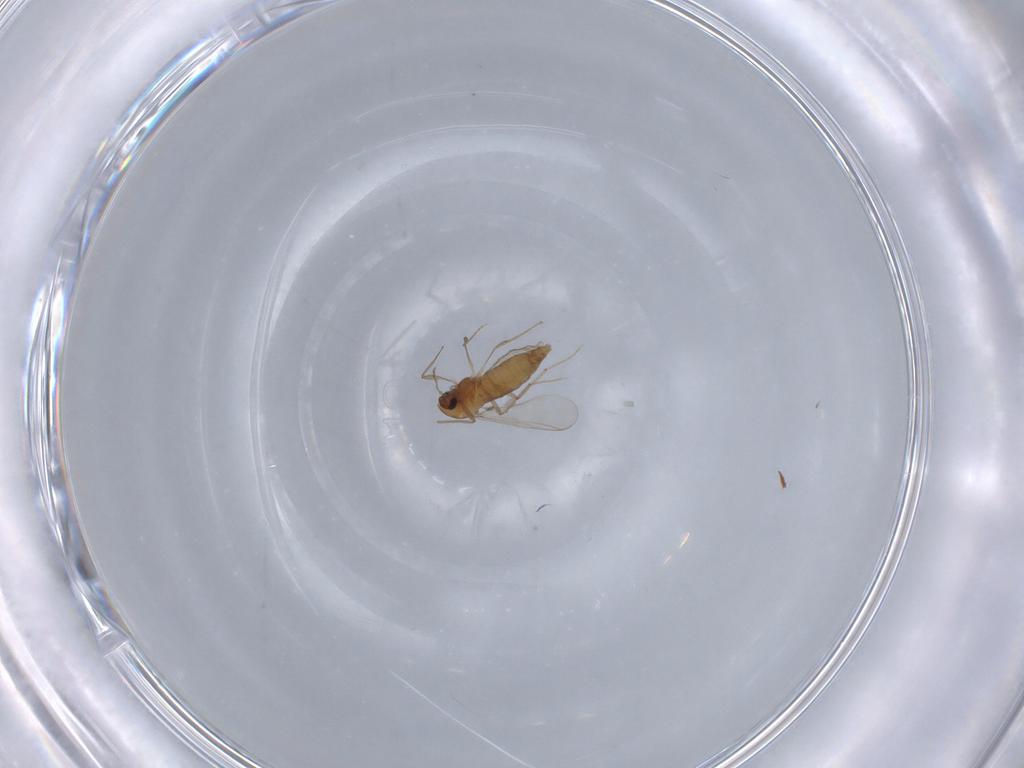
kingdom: Animalia
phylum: Arthropoda
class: Insecta
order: Diptera
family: Chironomidae
